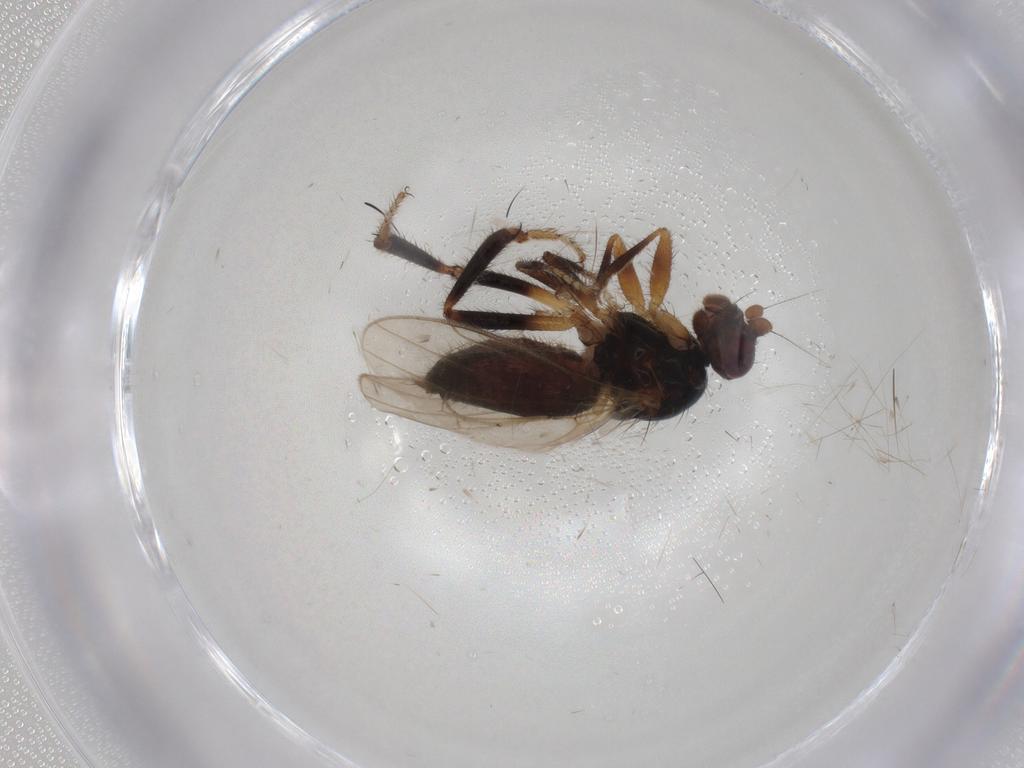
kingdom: Animalia
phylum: Arthropoda
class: Insecta
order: Diptera
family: Sphaeroceridae
